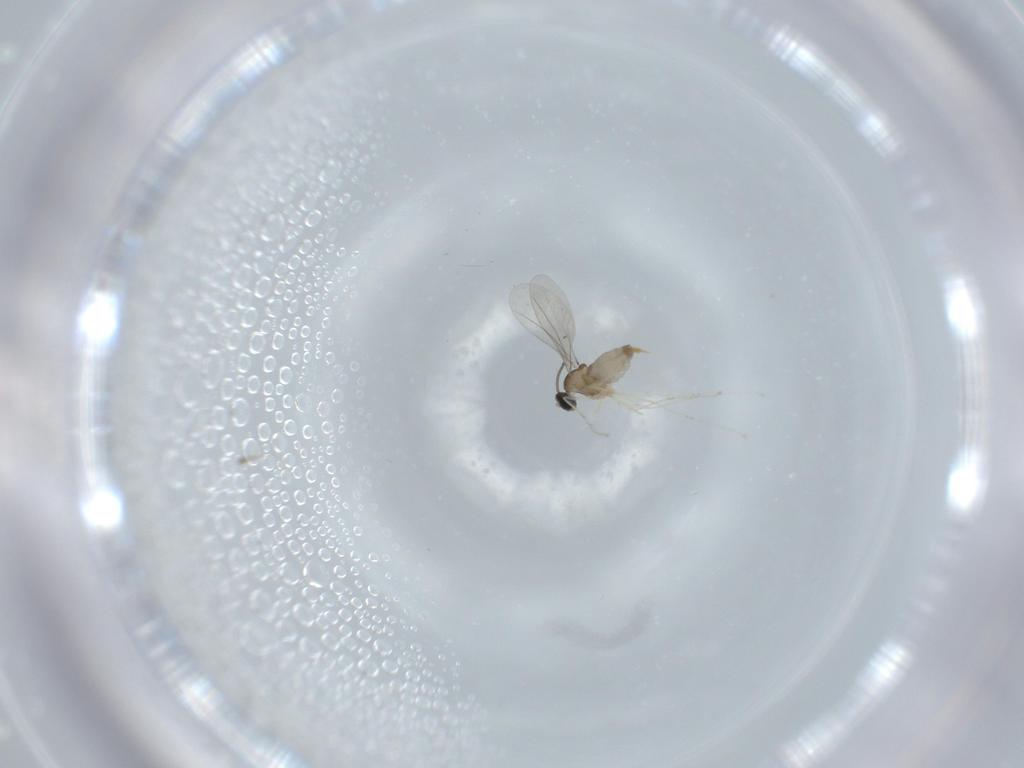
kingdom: Animalia
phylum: Arthropoda
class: Insecta
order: Diptera
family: Cecidomyiidae
